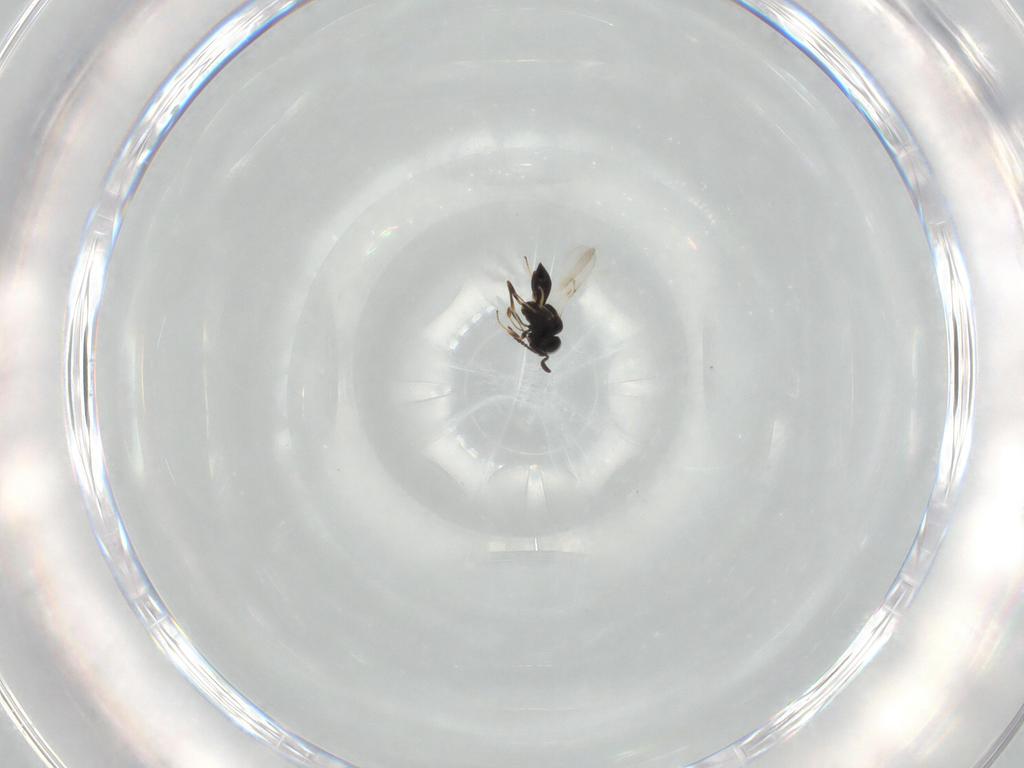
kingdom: Animalia
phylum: Arthropoda
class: Insecta
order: Hymenoptera
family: Scelionidae
